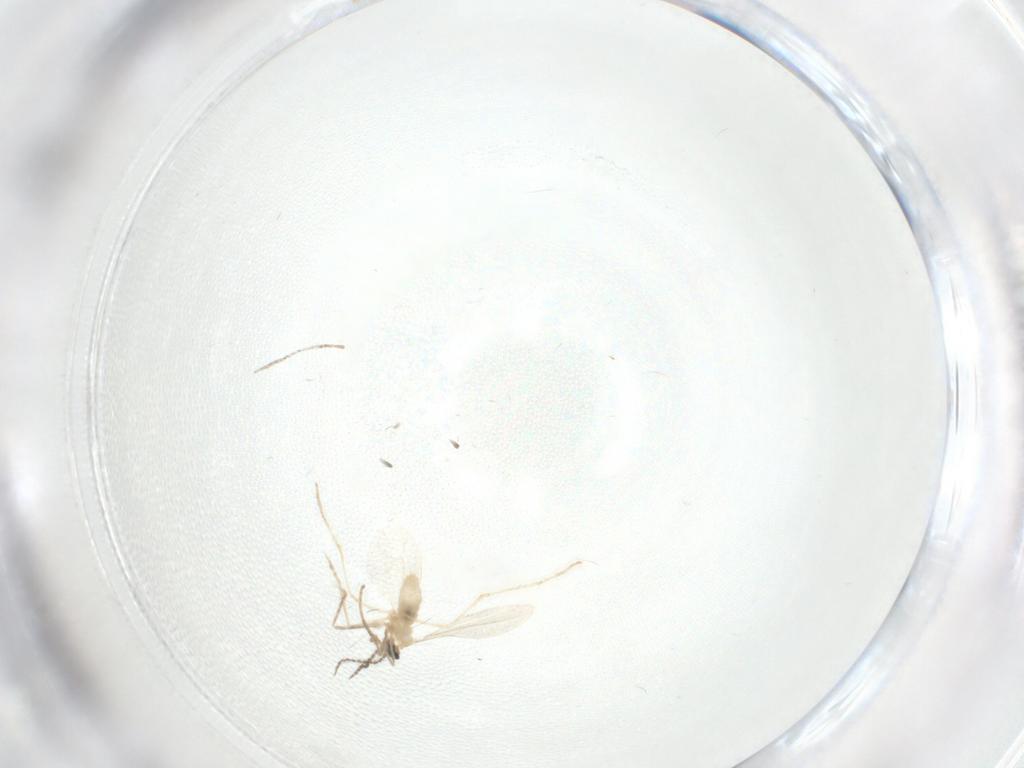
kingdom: Animalia
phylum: Arthropoda
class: Insecta
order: Diptera
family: Cecidomyiidae
